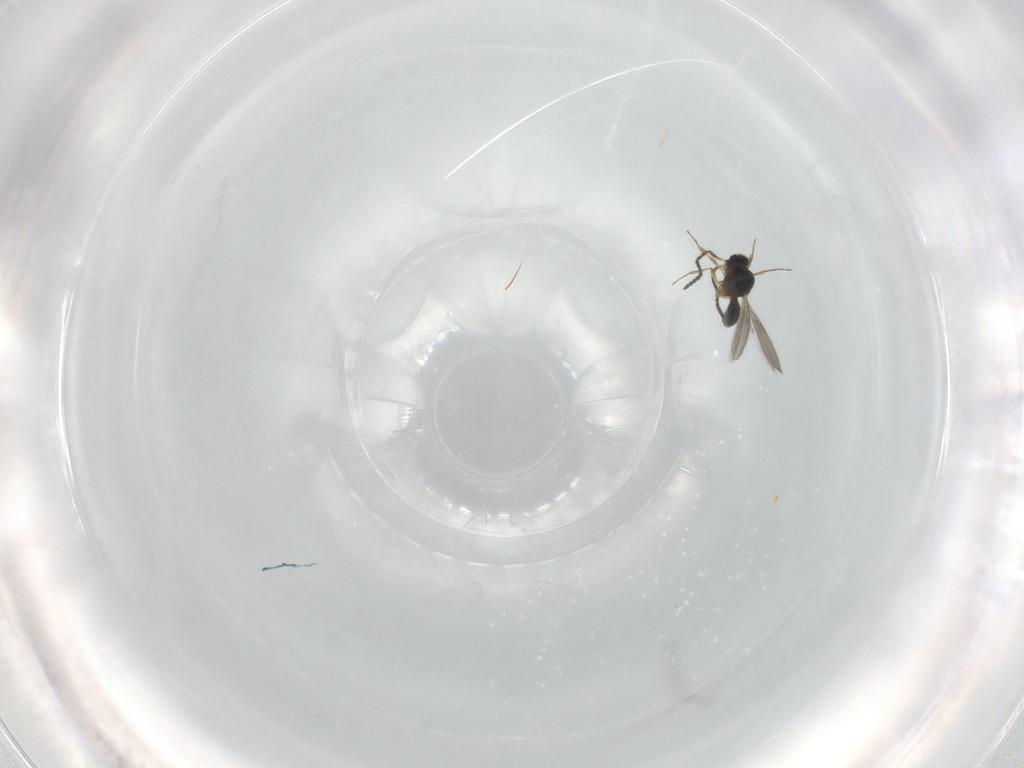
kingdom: Animalia
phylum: Arthropoda
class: Insecta
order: Hymenoptera
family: Scelionidae
